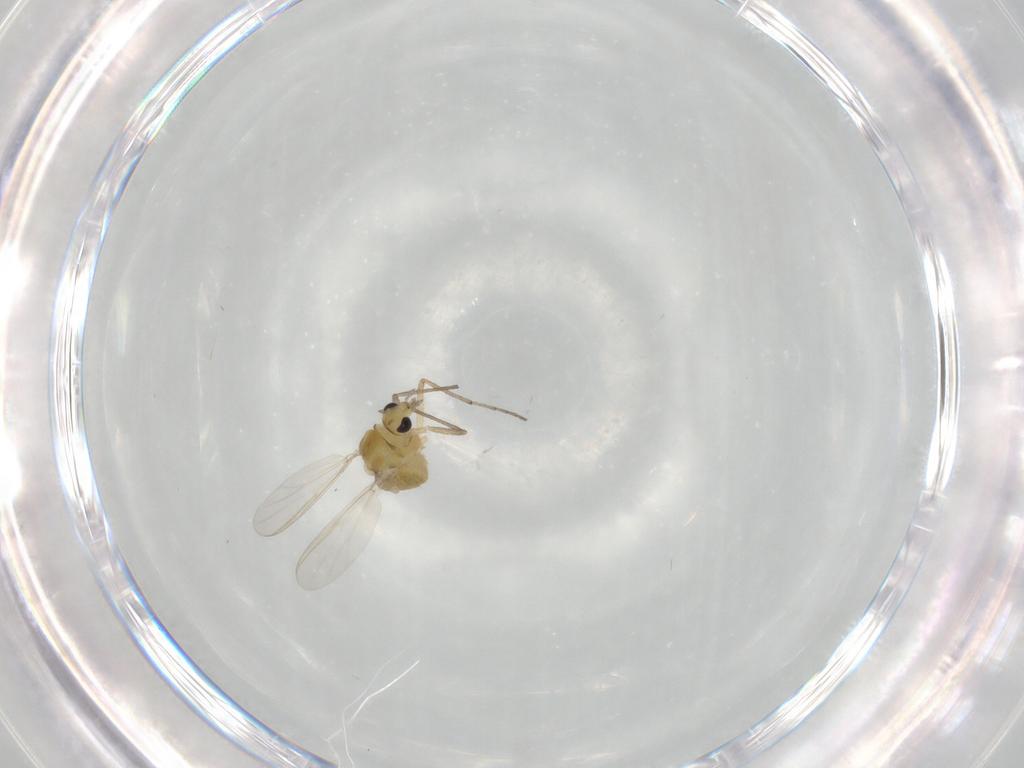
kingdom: Animalia
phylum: Arthropoda
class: Insecta
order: Diptera
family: Chironomidae
